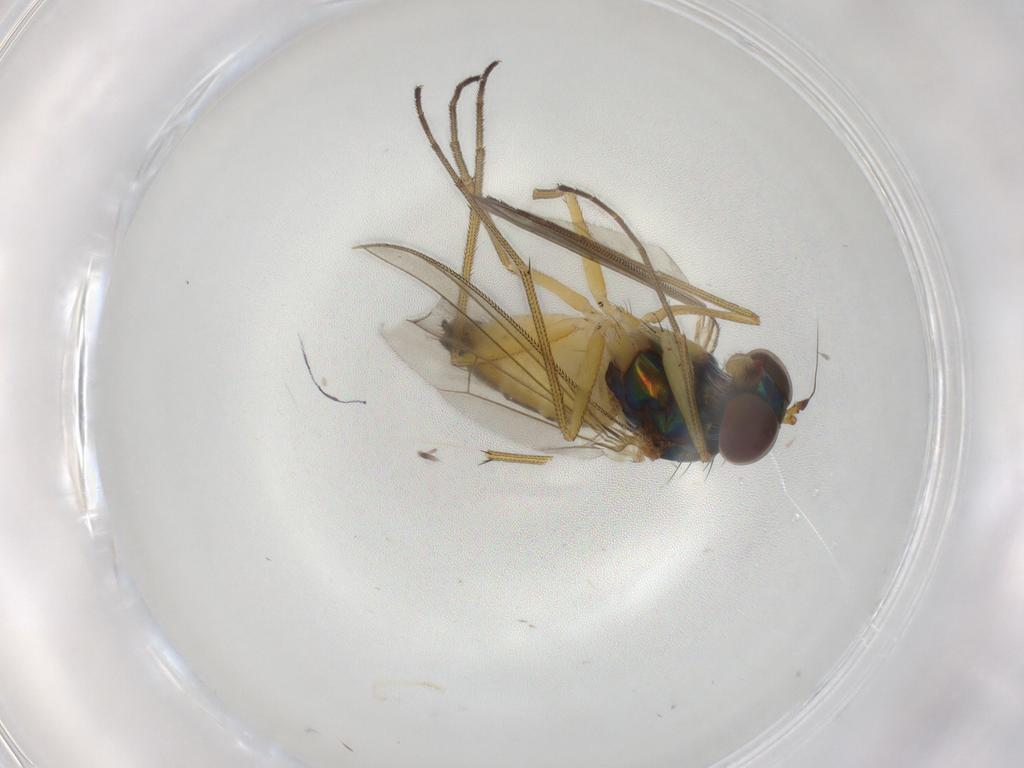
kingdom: Animalia
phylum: Arthropoda
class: Insecta
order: Diptera
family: Dolichopodidae
